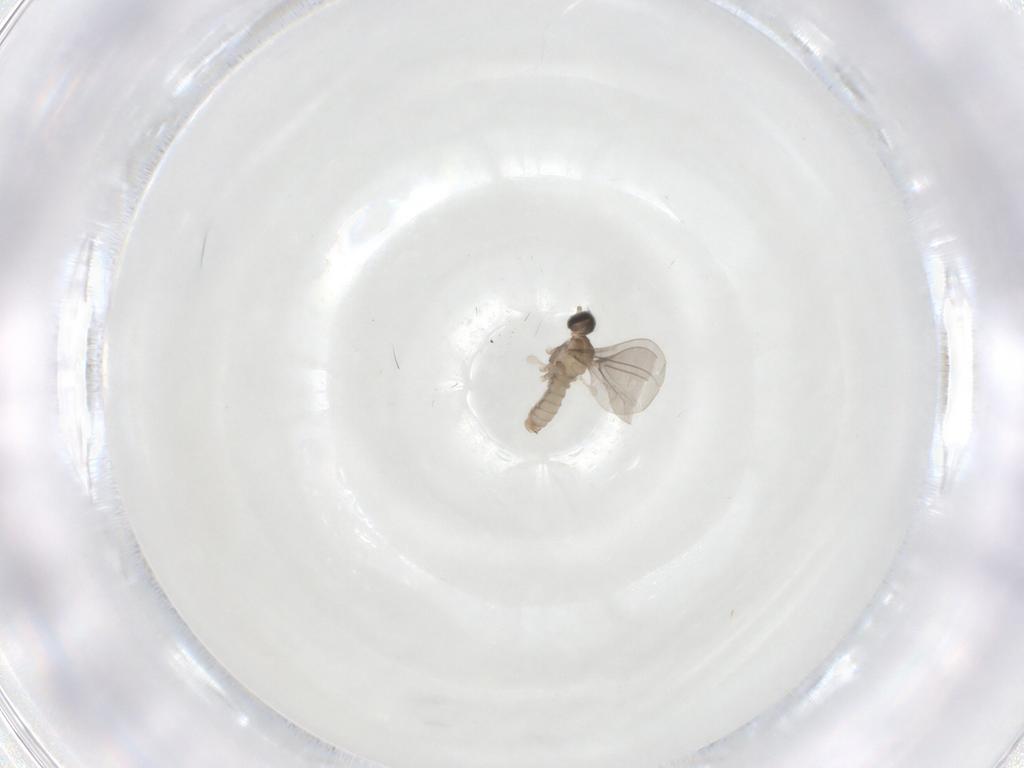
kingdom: Animalia
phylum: Arthropoda
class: Insecta
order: Diptera
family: Cecidomyiidae
